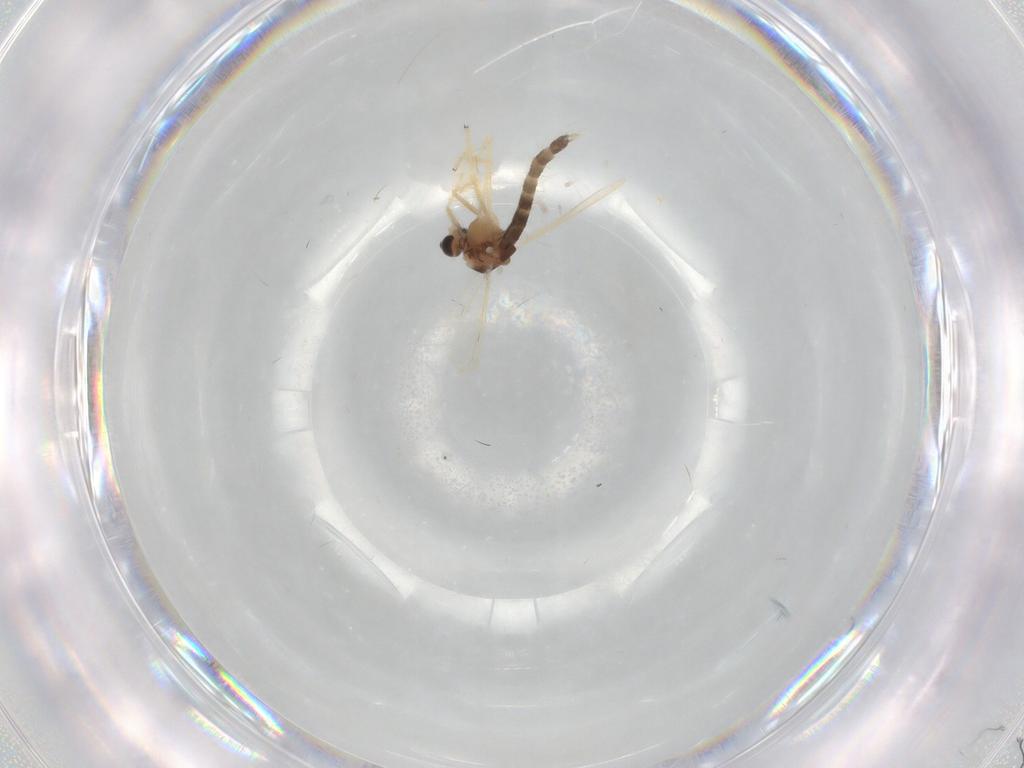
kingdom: Animalia
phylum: Arthropoda
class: Insecta
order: Diptera
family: Chironomidae
